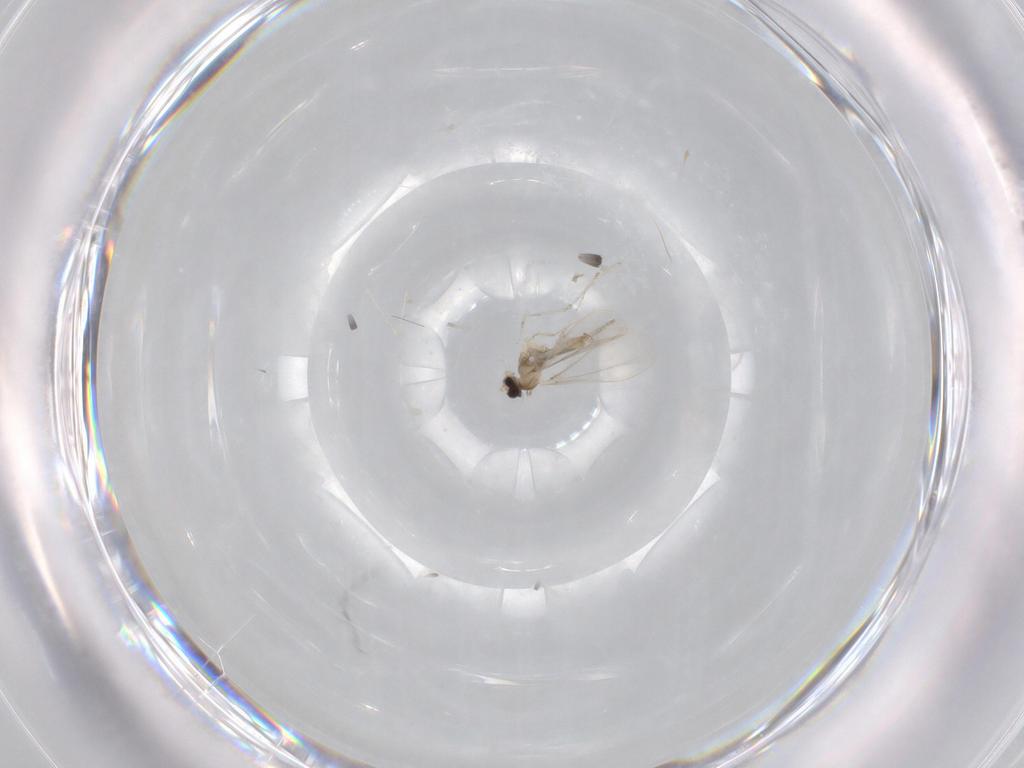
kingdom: Animalia
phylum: Arthropoda
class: Insecta
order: Diptera
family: Cecidomyiidae
